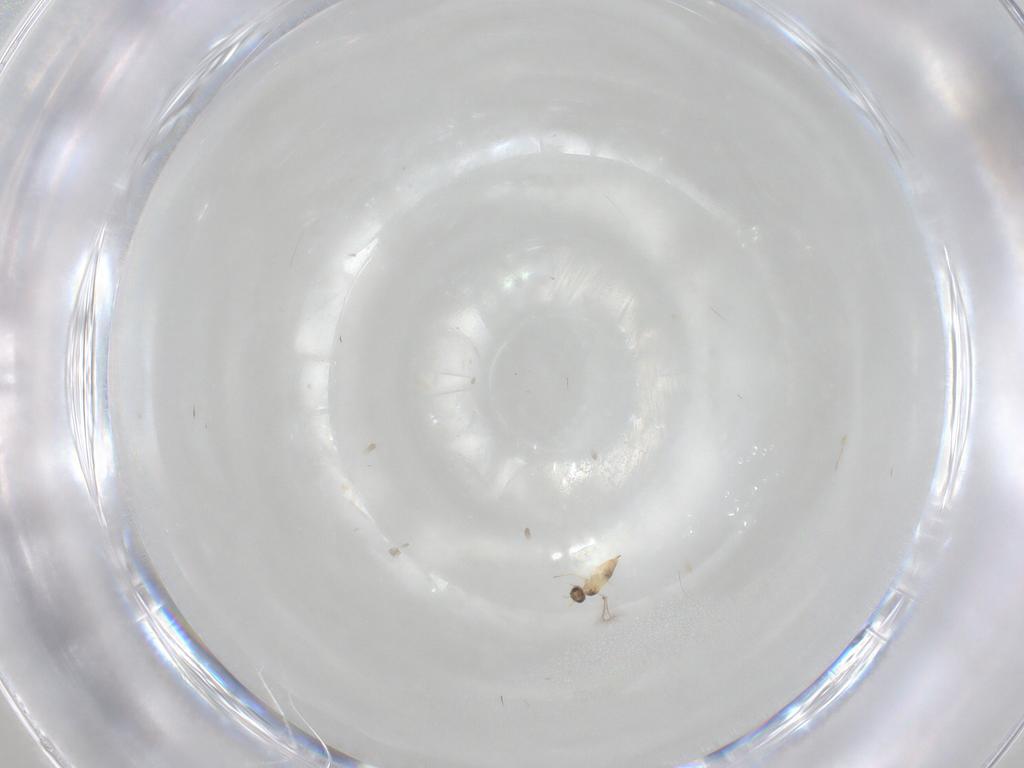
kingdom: Animalia
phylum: Arthropoda
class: Insecta
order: Hymenoptera
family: Mymaridae
